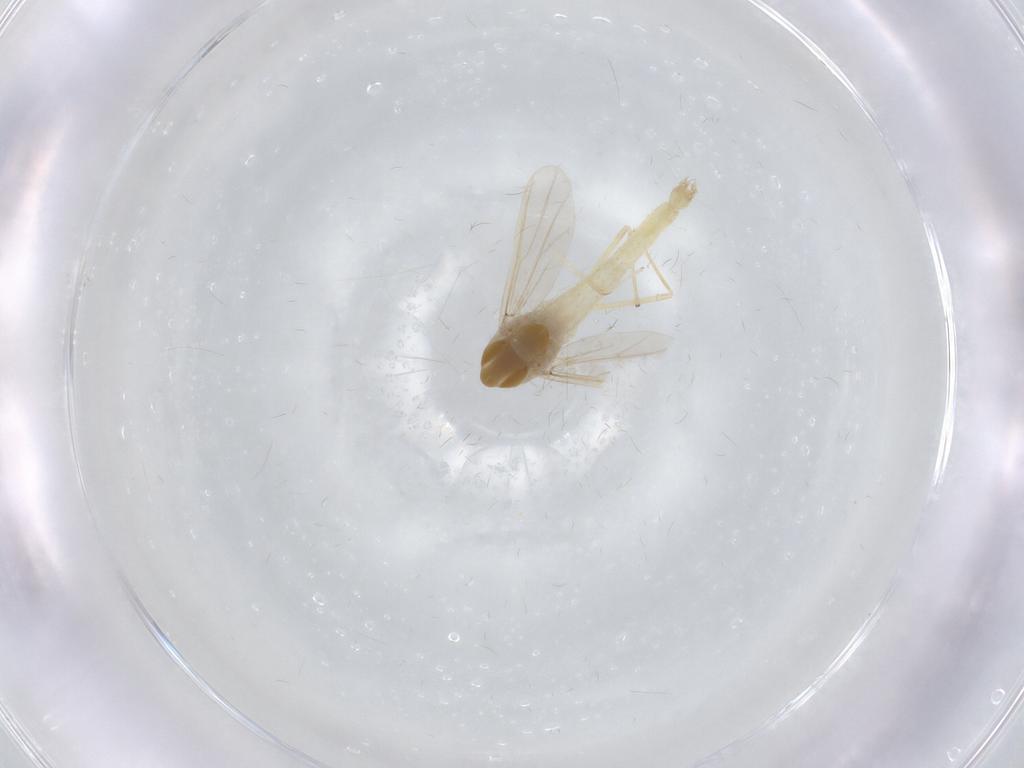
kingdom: Animalia
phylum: Arthropoda
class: Insecta
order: Diptera
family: Chironomidae
